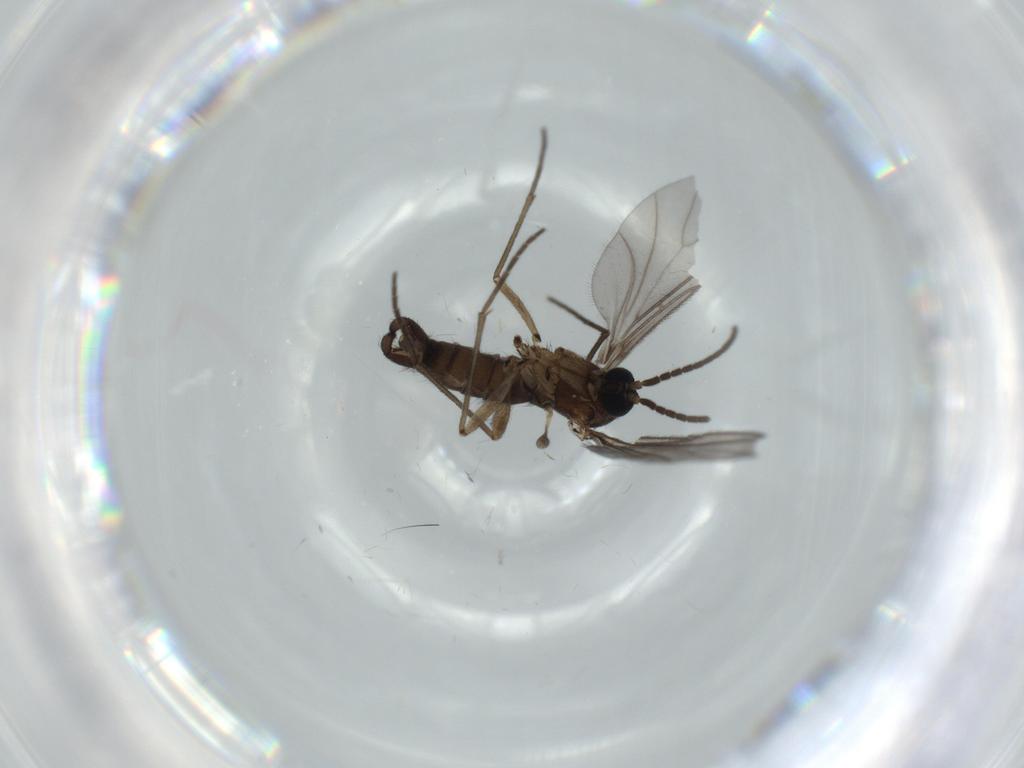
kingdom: Animalia
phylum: Arthropoda
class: Insecta
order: Diptera
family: Sciaridae
